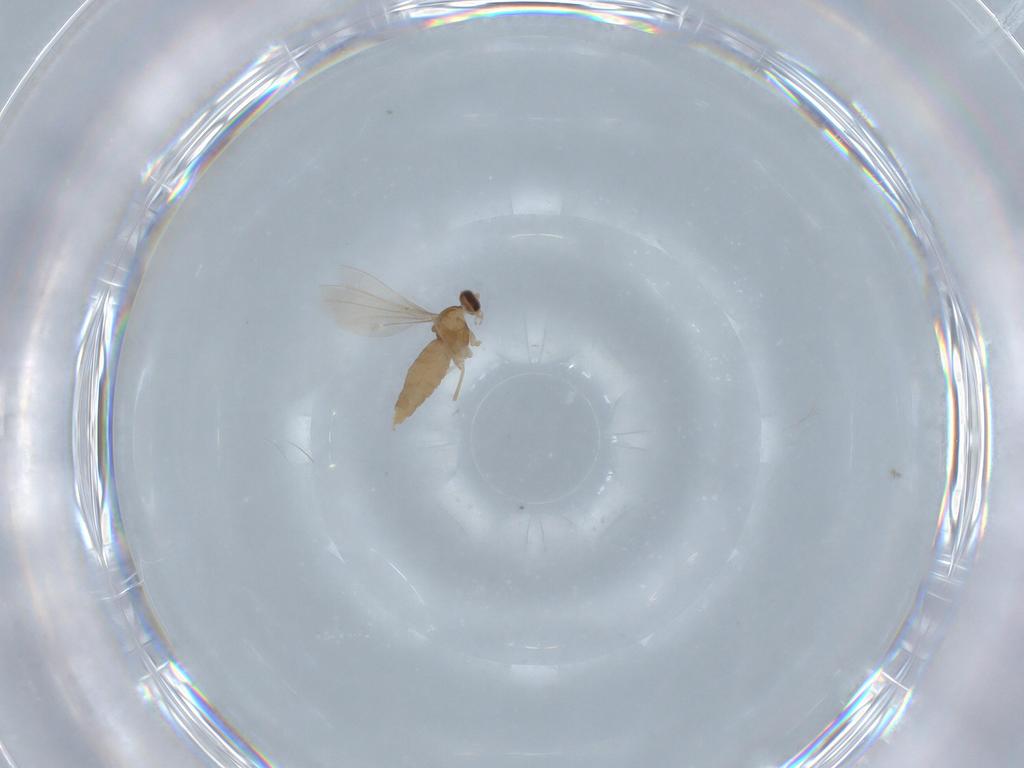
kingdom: Animalia
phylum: Arthropoda
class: Insecta
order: Diptera
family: Cecidomyiidae
